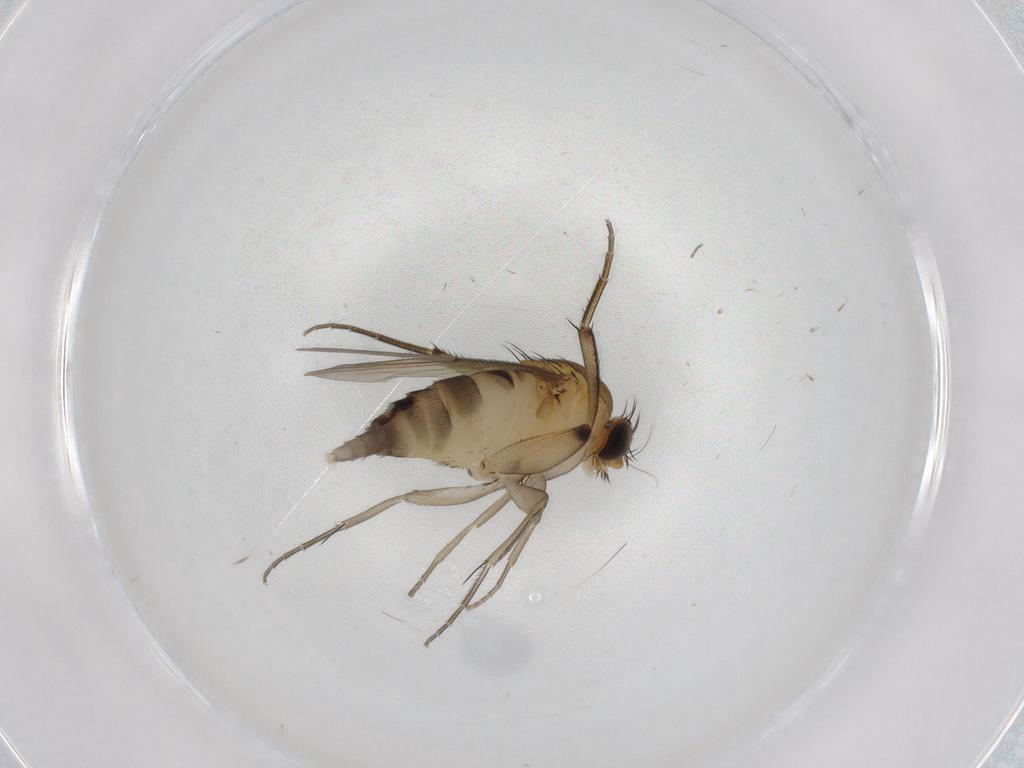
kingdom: Animalia
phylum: Arthropoda
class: Insecta
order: Diptera
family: Phoridae
